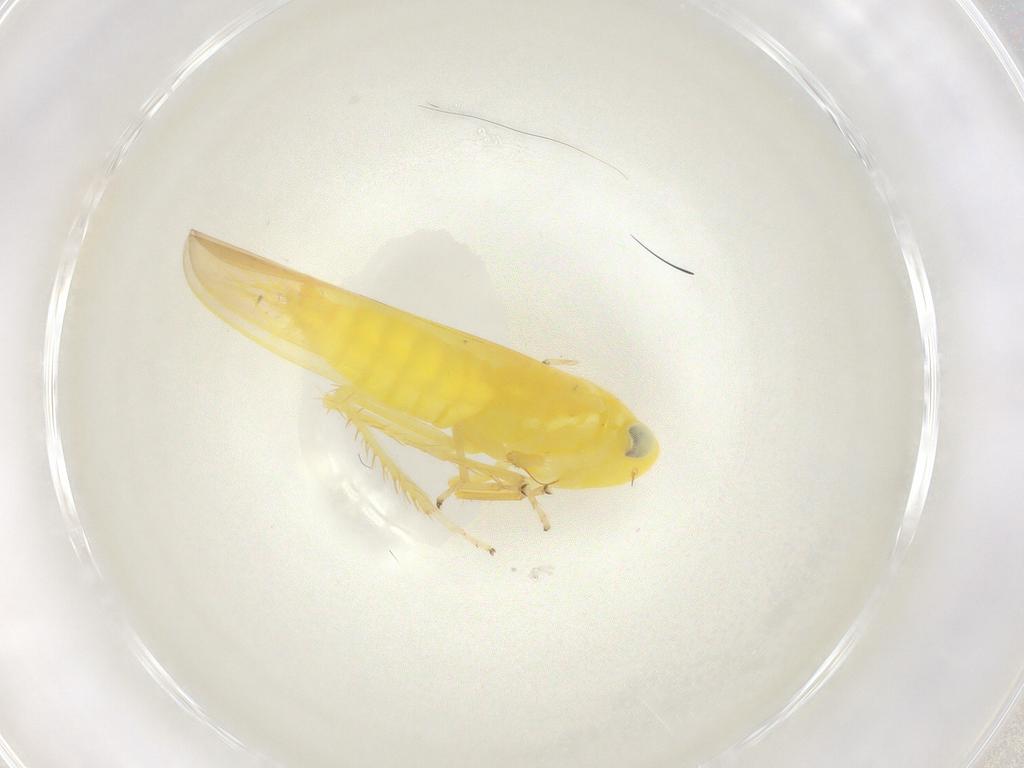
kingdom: Animalia
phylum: Arthropoda
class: Insecta
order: Hemiptera
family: Cicadellidae
